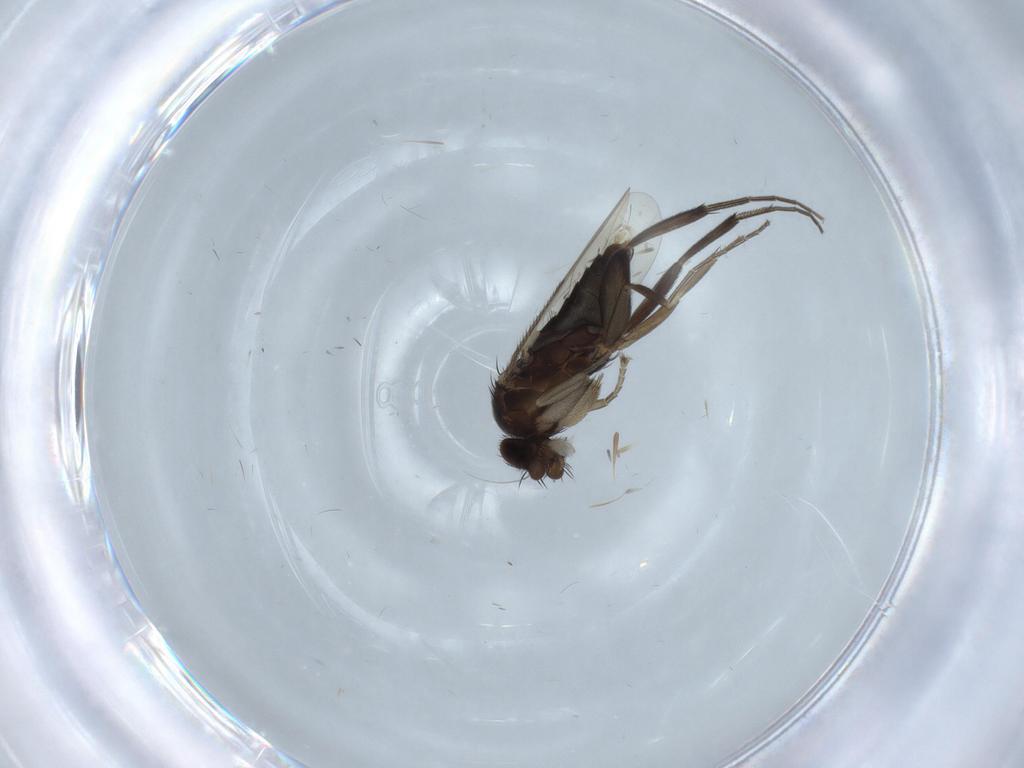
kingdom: Animalia
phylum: Arthropoda
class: Insecta
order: Diptera
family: Phoridae
